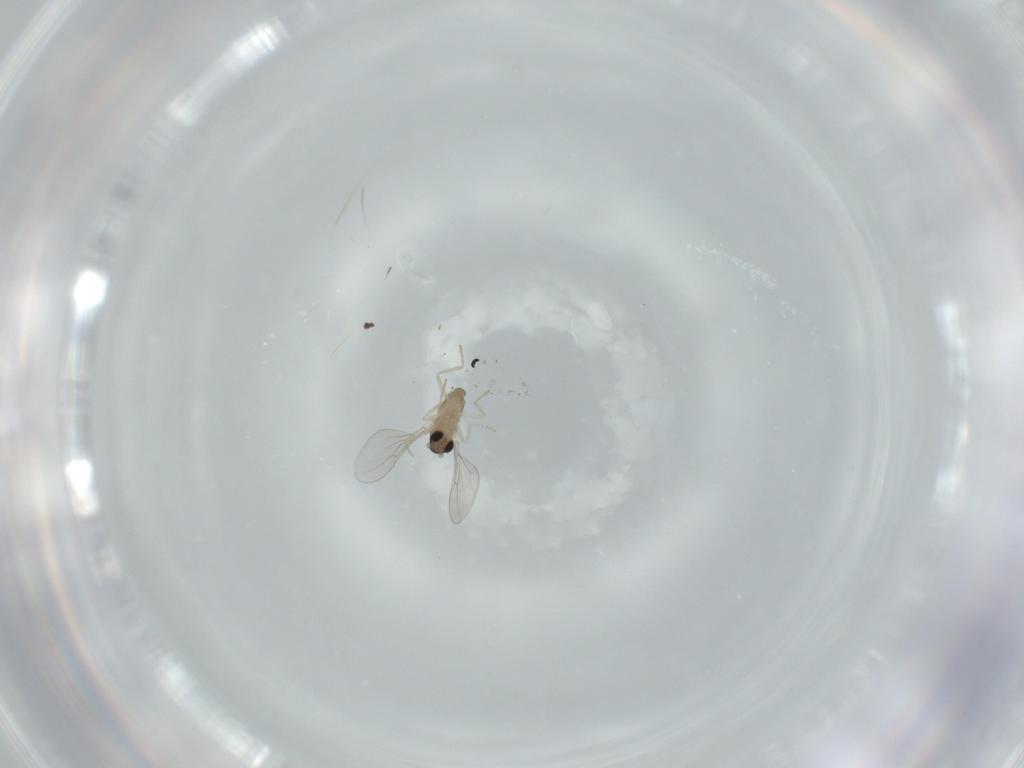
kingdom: Animalia
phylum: Arthropoda
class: Insecta
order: Diptera
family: Cecidomyiidae
